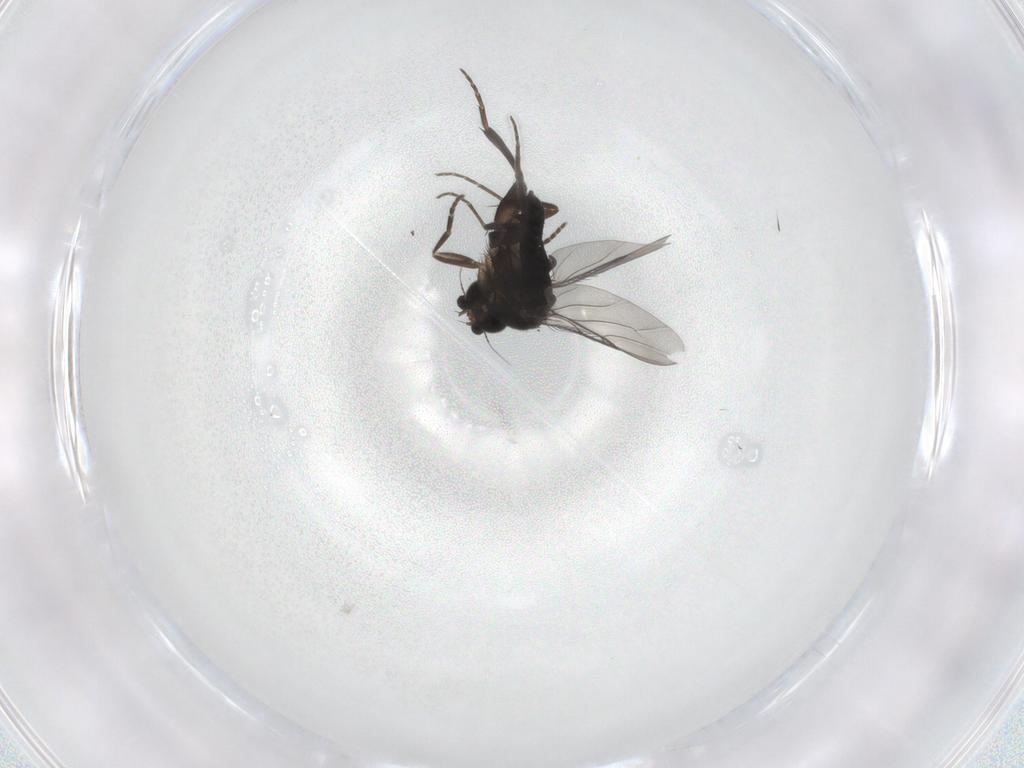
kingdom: Animalia
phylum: Arthropoda
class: Insecta
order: Diptera
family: Phoridae
